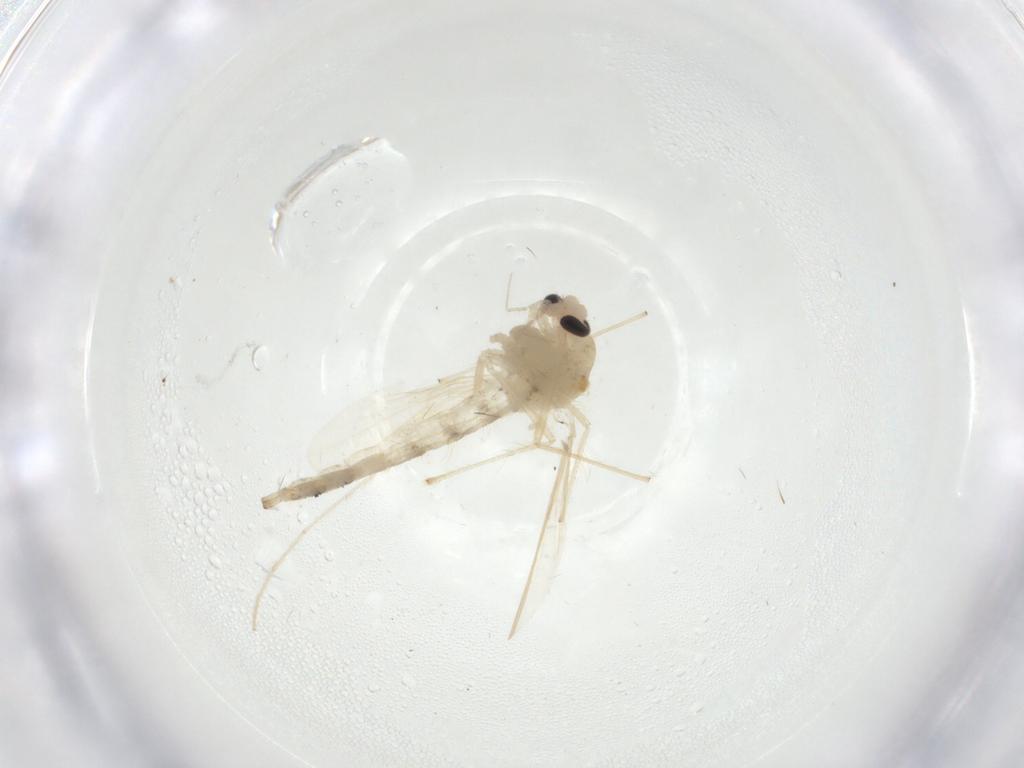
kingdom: Animalia
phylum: Arthropoda
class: Insecta
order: Diptera
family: Chironomidae
